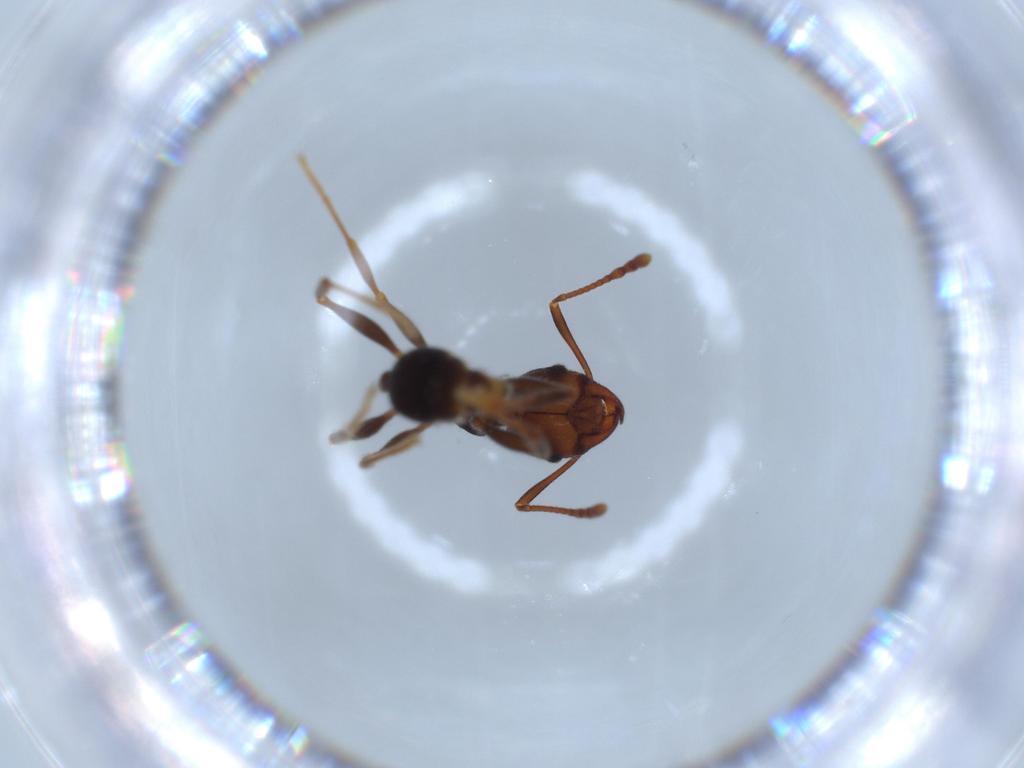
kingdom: Animalia
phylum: Arthropoda
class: Insecta
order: Hymenoptera
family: Formicidae
